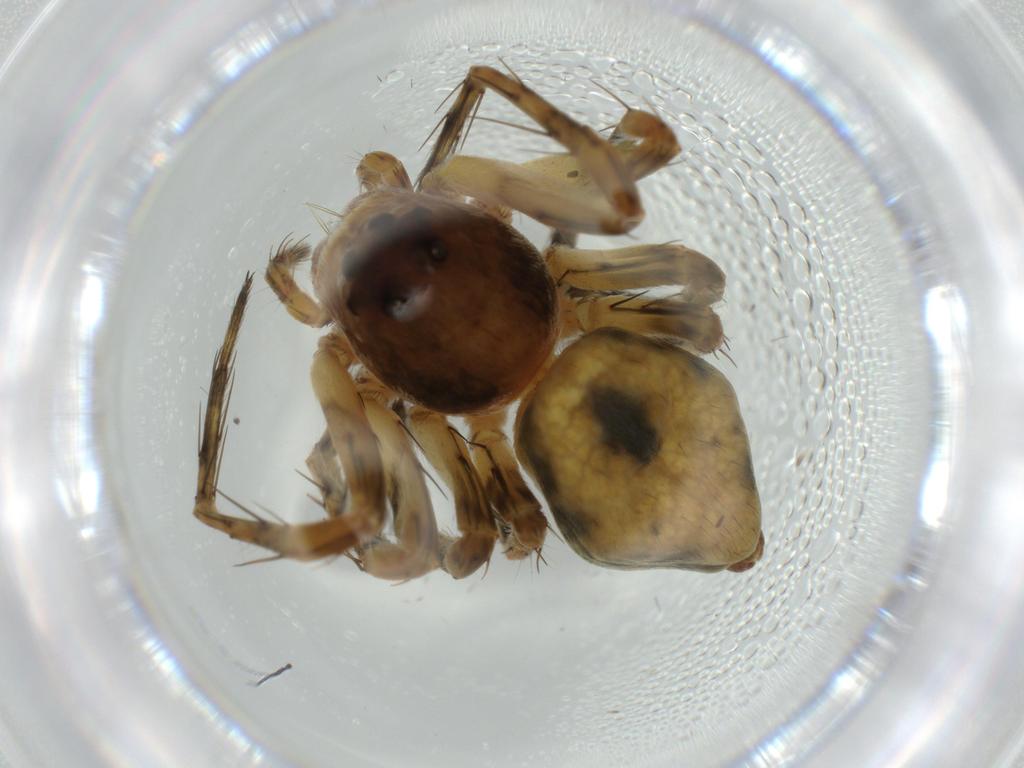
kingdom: Animalia
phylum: Arthropoda
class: Arachnida
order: Araneae
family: Oxyopidae
